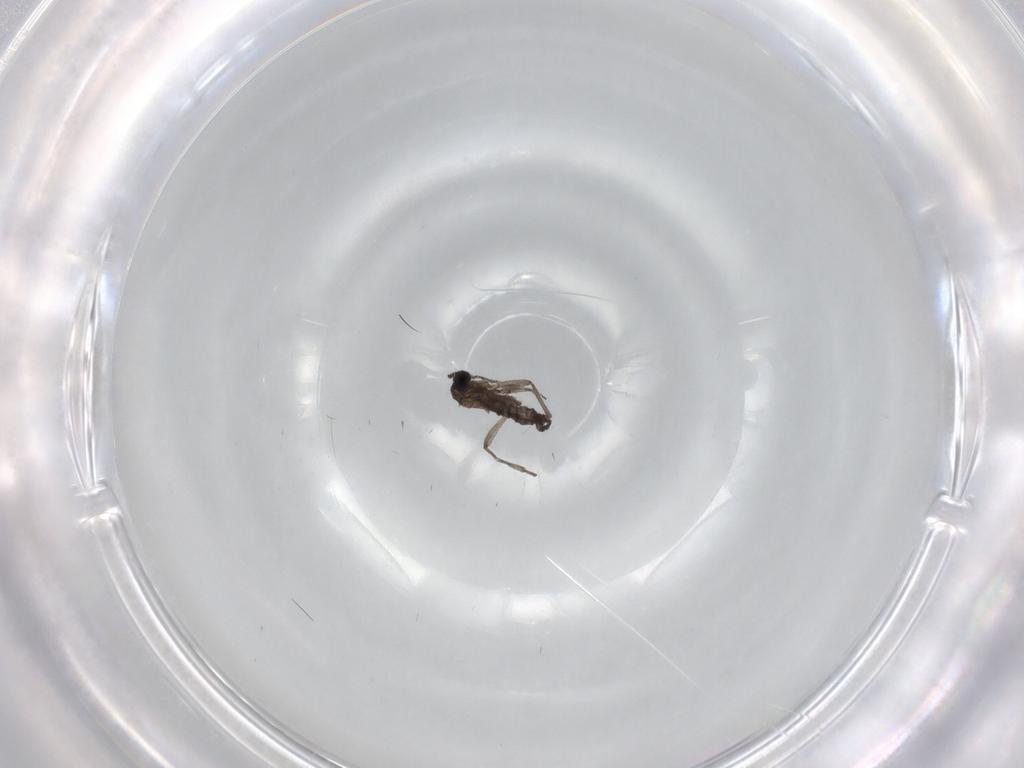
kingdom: Animalia
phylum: Arthropoda
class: Insecta
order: Diptera
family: Sciaridae
